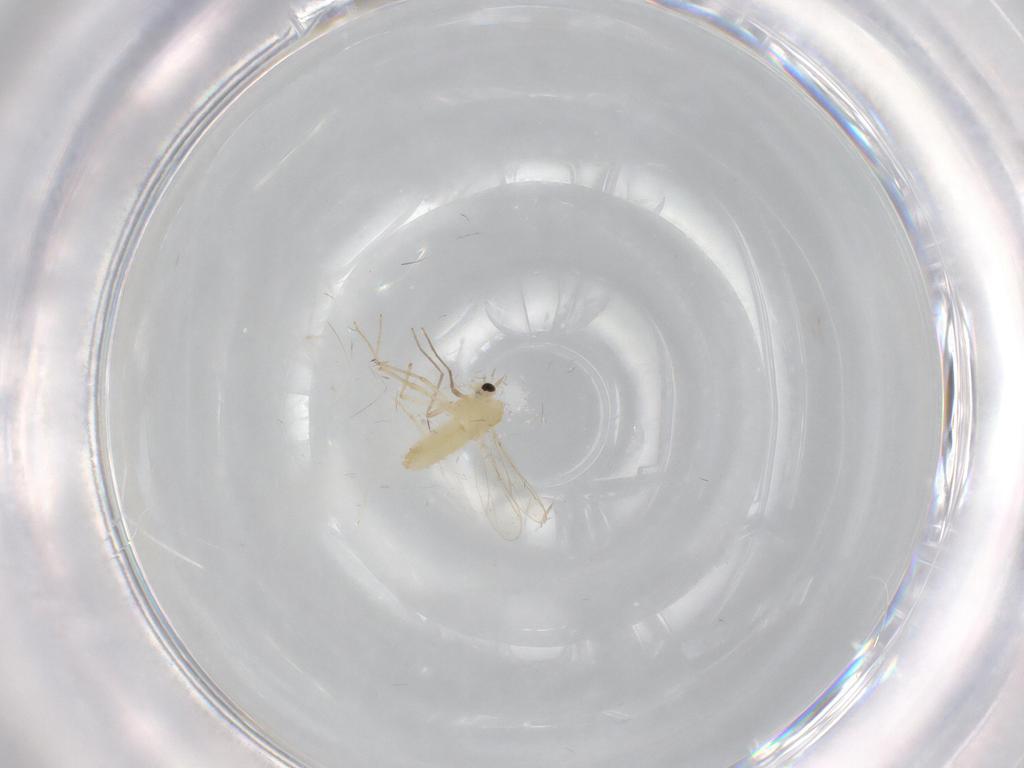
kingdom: Animalia
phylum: Arthropoda
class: Insecta
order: Diptera
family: Chironomidae
